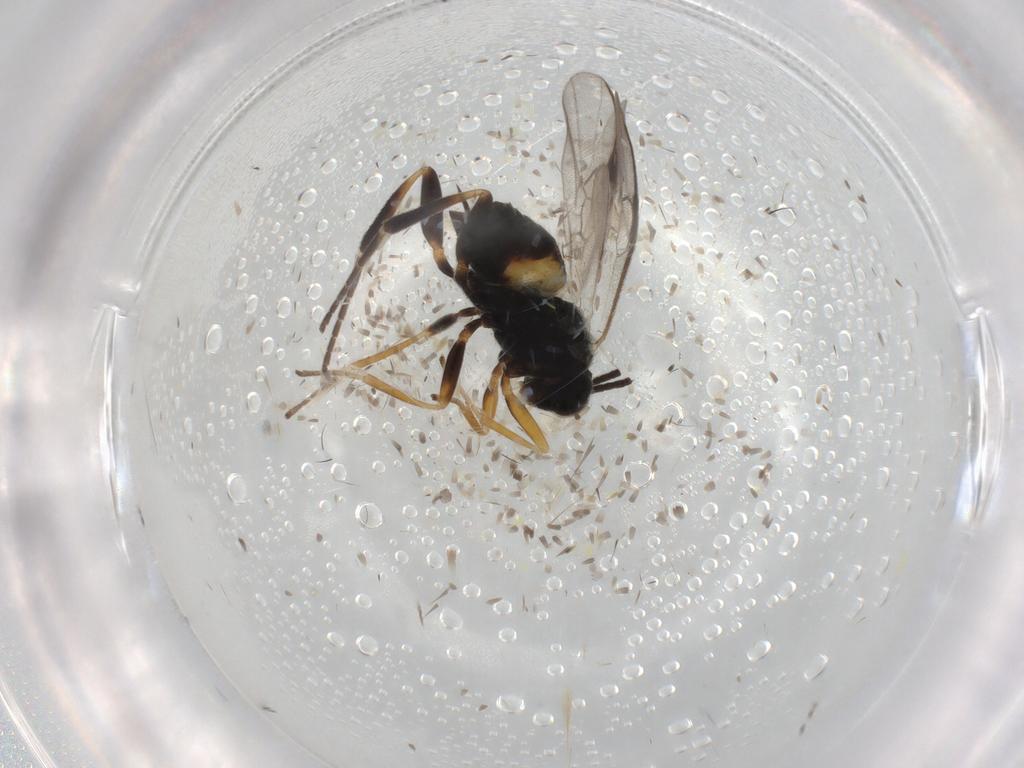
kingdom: Animalia
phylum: Arthropoda
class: Insecta
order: Hymenoptera
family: Braconidae
